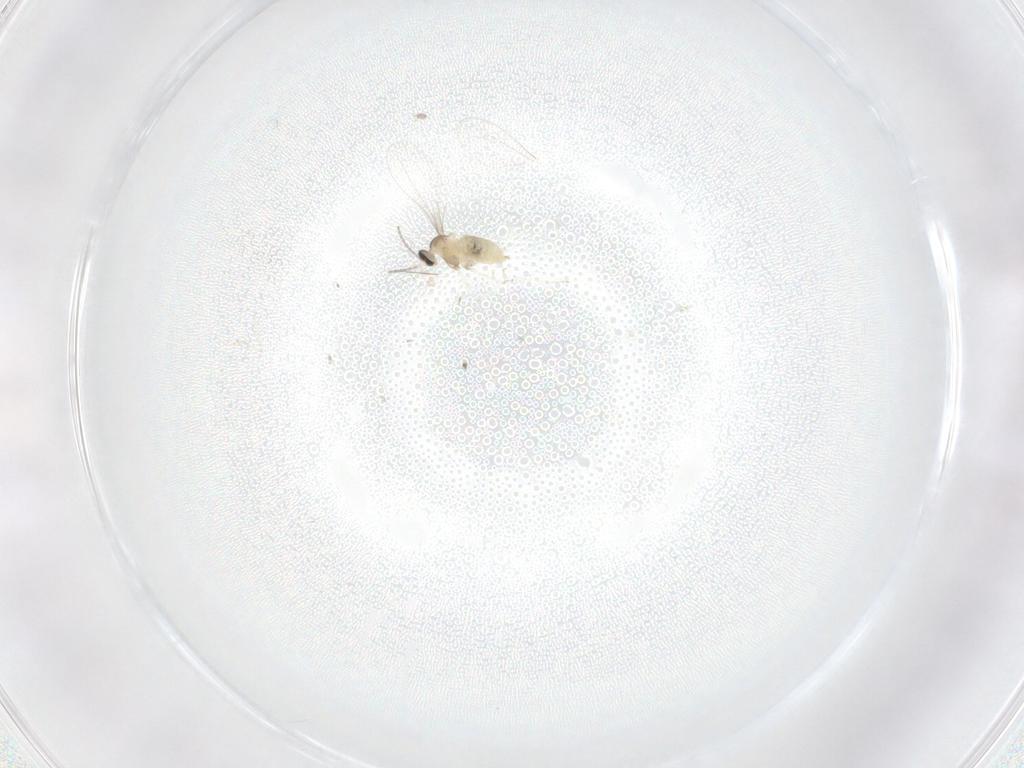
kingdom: Animalia
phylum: Arthropoda
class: Insecta
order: Diptera
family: Cecidomyiidae
